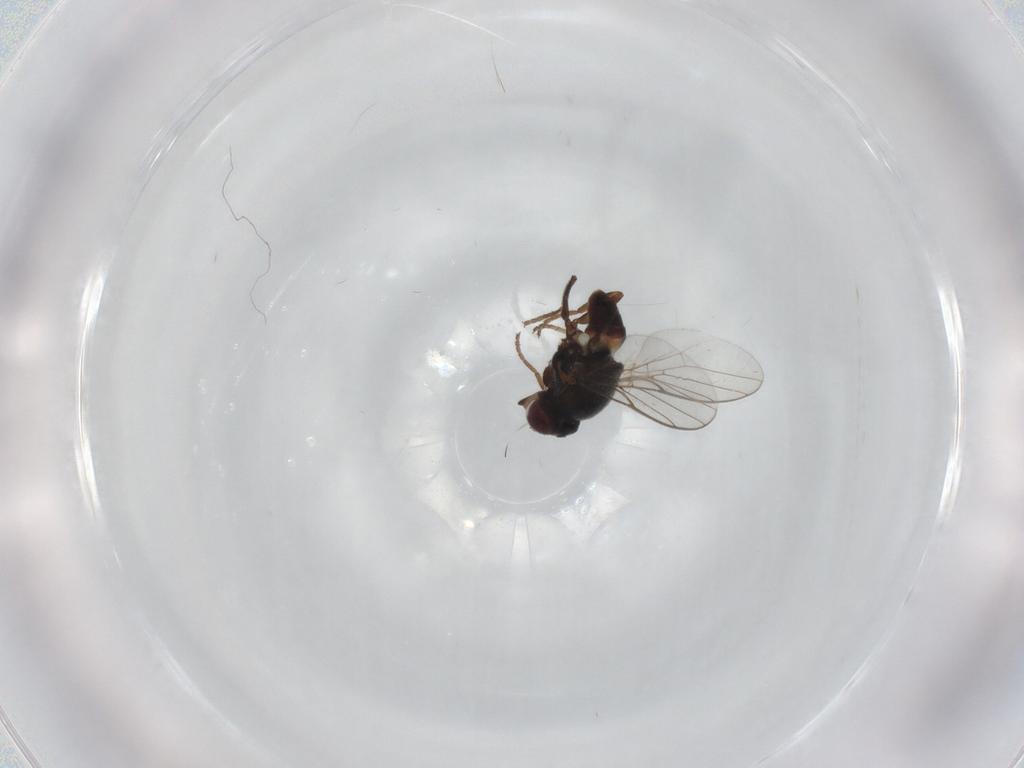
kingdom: Animalia
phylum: Arthropoda
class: Insecta
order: Diptera
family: Chloropidae
